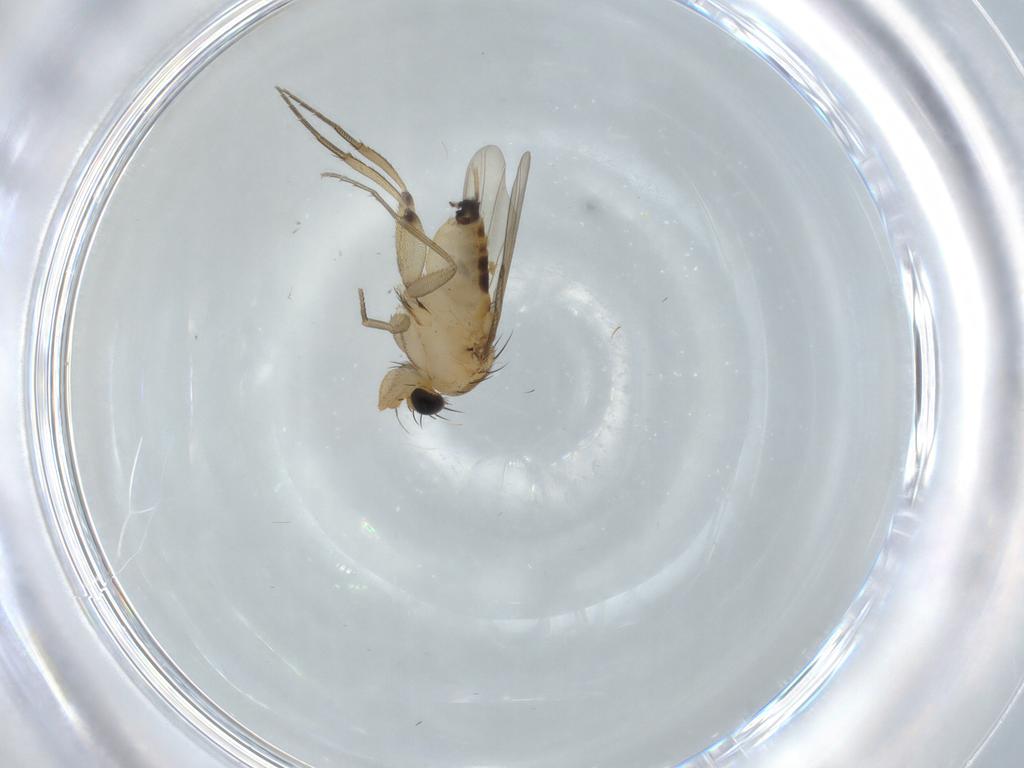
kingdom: Animalia
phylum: Arthropoda
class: Insecta
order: Diptera
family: Phoridae
